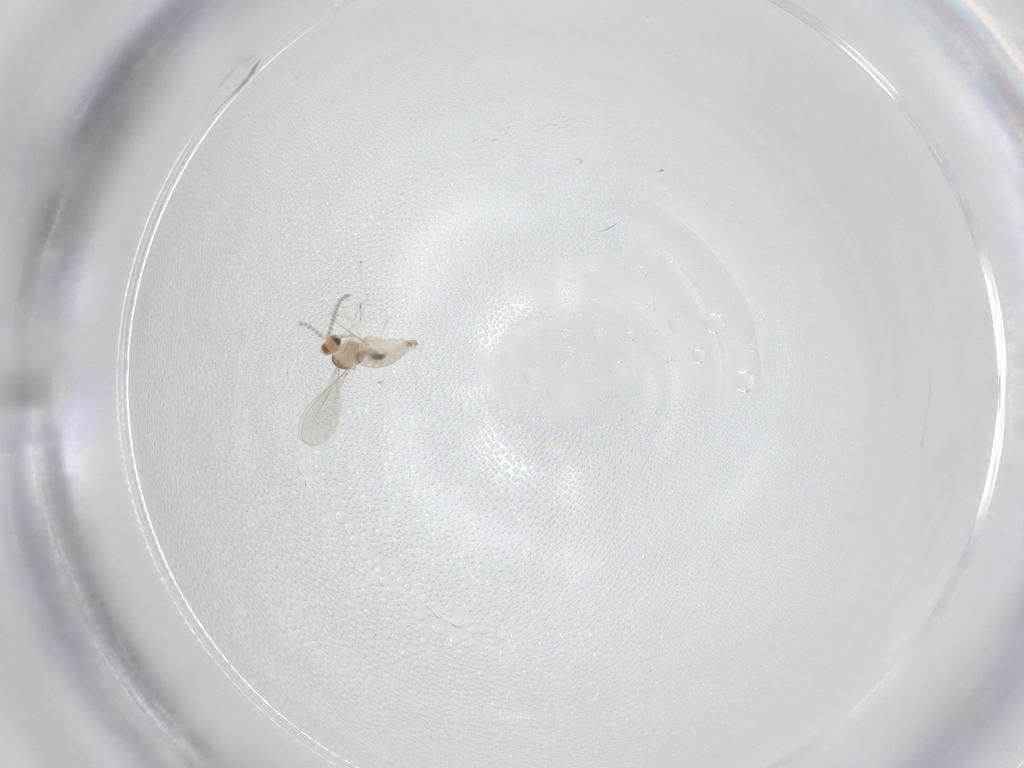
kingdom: Animalia
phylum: Arthropoda
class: Insecta
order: Diptera
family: Cecidomyiidae
